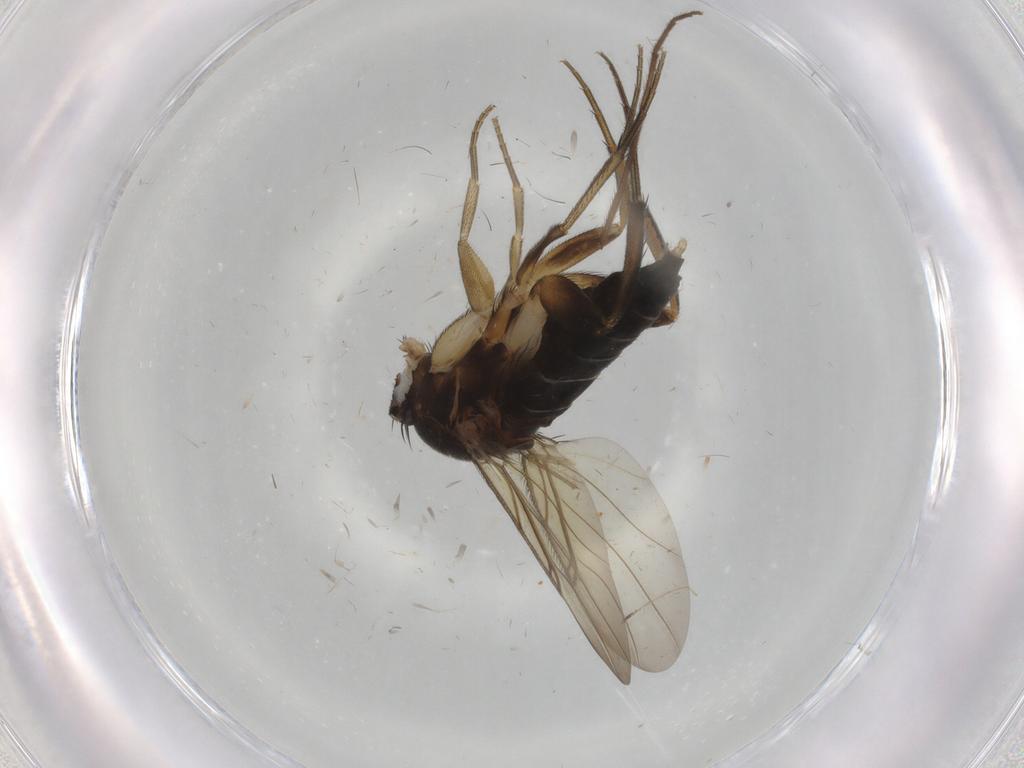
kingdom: Animalia
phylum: Arthropoda
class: Insecta
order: Diptera
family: Phoridae
